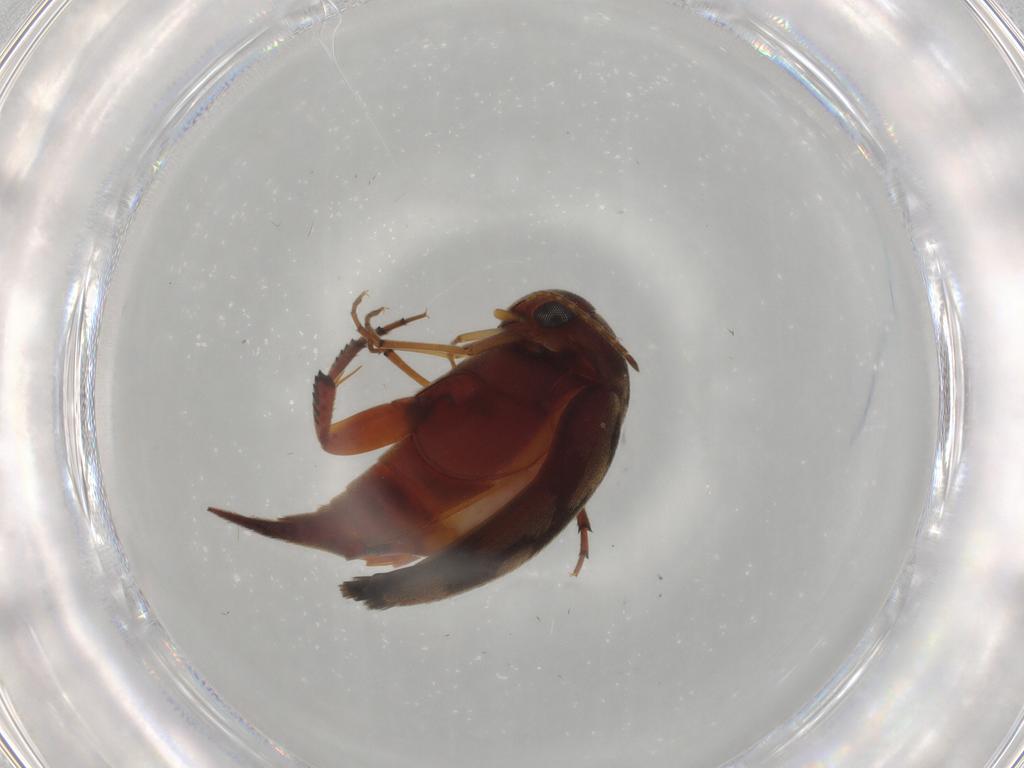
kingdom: Animalia
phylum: Arthropoda
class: Insecta
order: Coleoptera
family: Mordellidae
